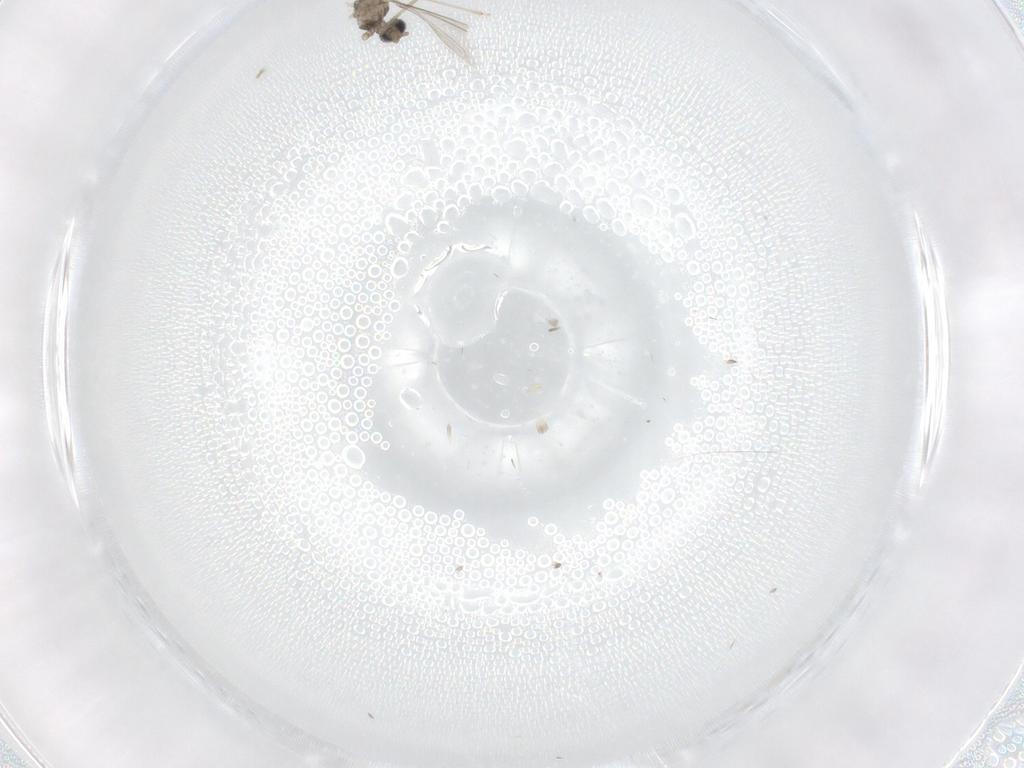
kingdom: Animalia
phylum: Arthropoda
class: Insecta
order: Diptera
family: Cecidomyiidae
